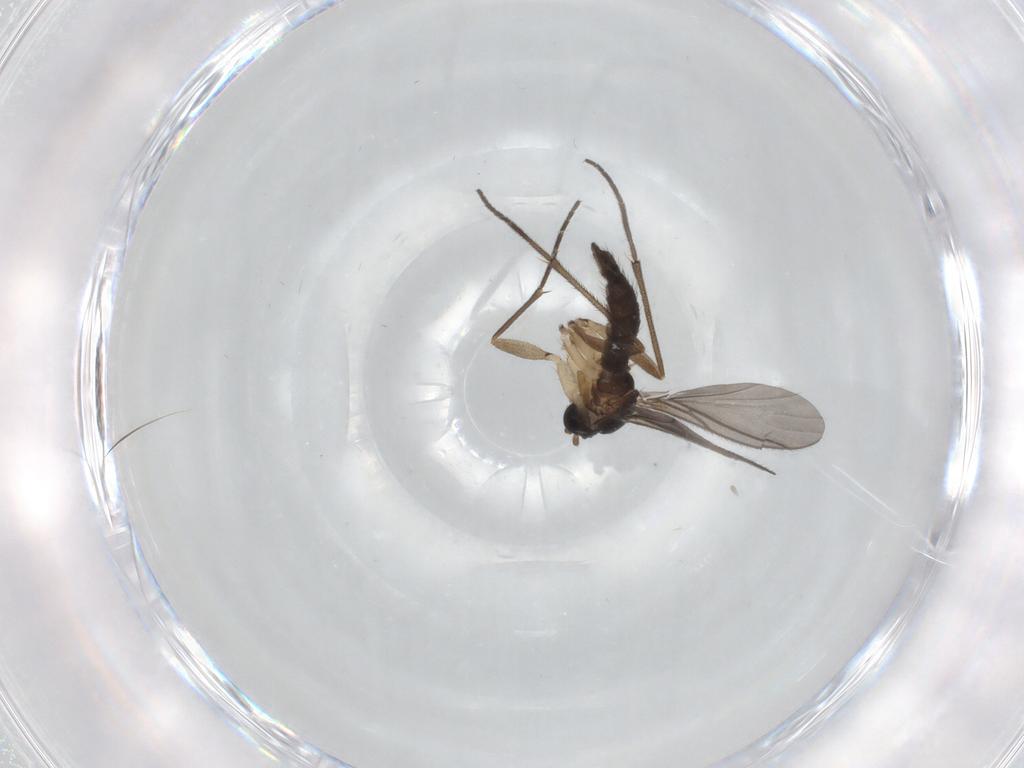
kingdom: Animalia
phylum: Arthropoda
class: Insecta
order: Diptera
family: Sciaridae
